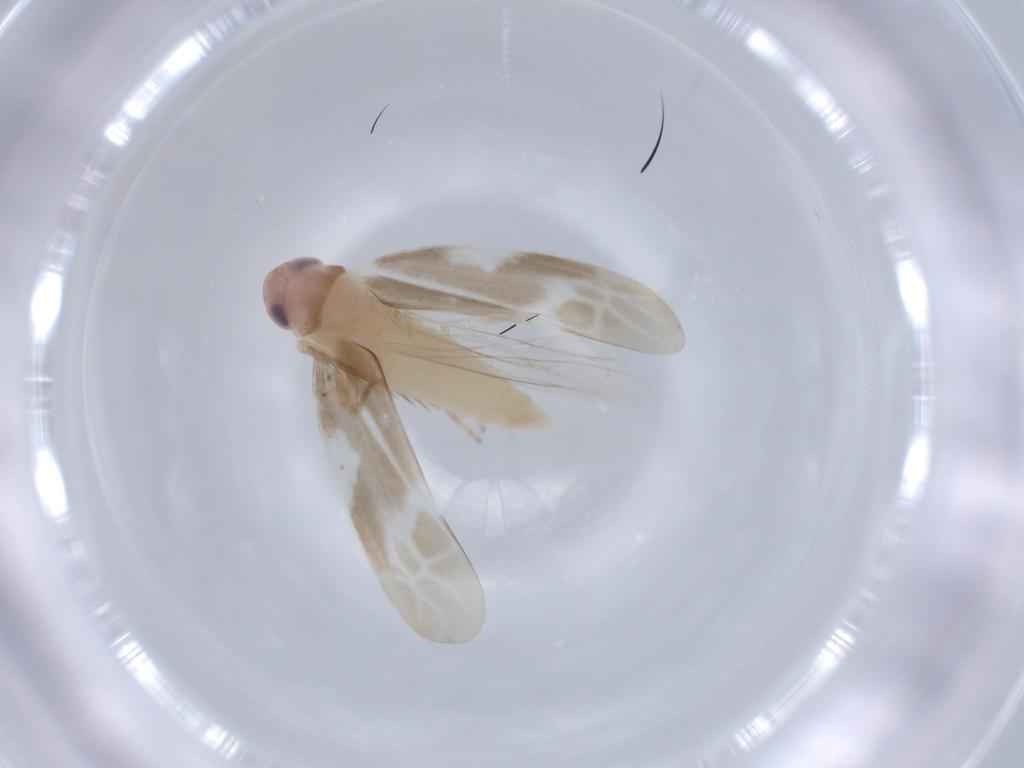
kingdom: Animalia
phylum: Arthropoda
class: Insecta
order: Hemiptera
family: Cicadellidae
